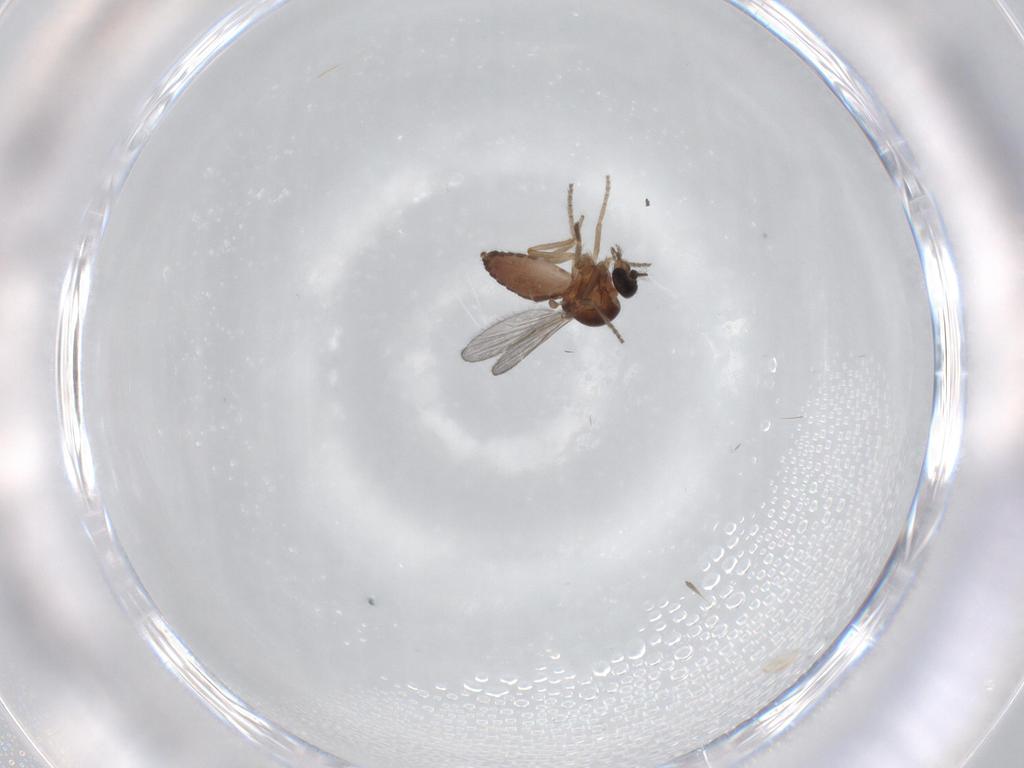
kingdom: Animalia
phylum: Arthropoda
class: Insecta
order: Diptera
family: Ceratopogonidae
